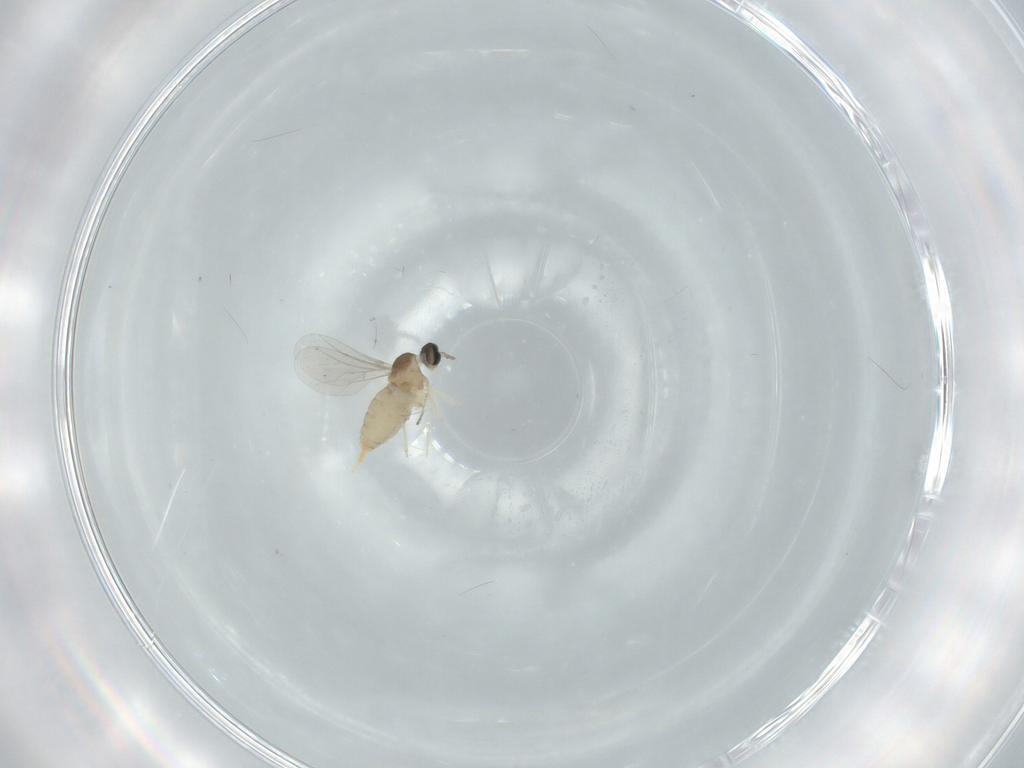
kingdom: Animalia
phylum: Arthropoda
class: Insecta
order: Diptera
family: Cecidomyiidae
